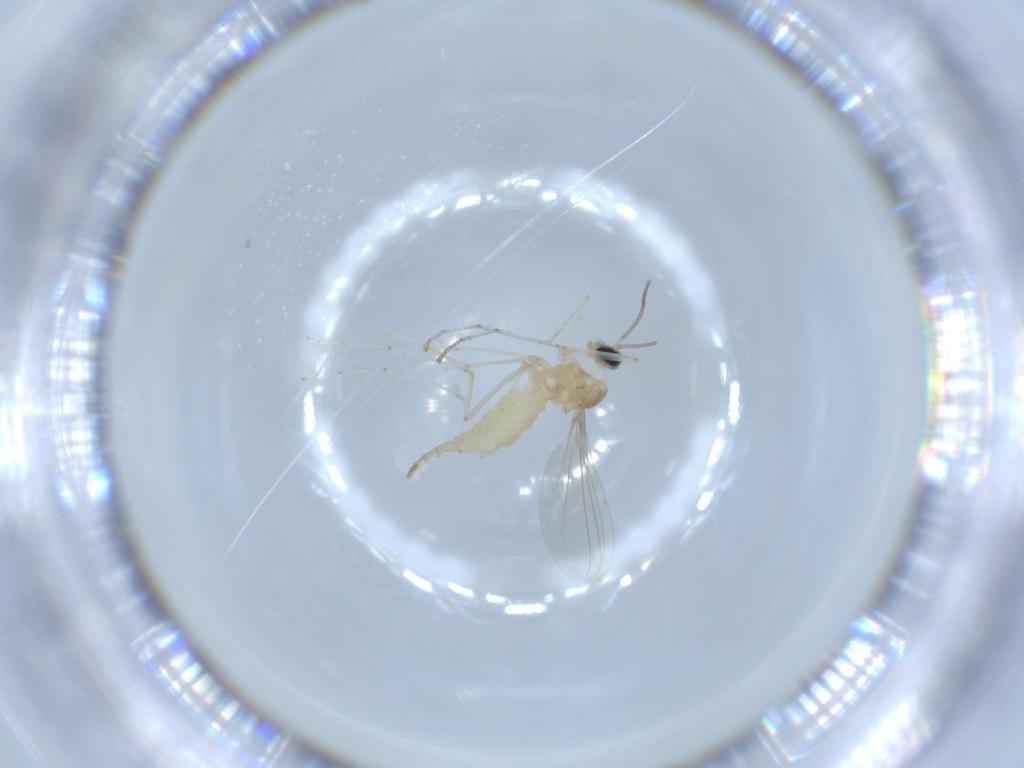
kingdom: Animalia
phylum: Arthropoda
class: Insecta
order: Diptera
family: Cecidomyiidae
